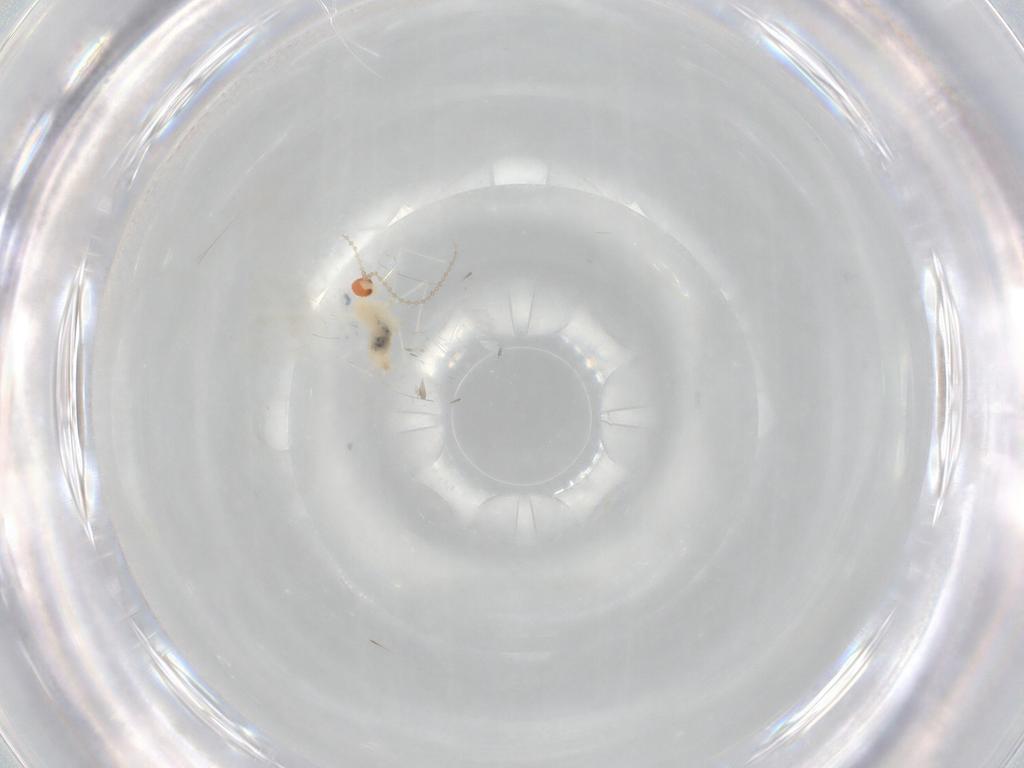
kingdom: Animalia
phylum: Arthropoda
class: Insecta
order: Diptera
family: Cecidomyiidae
